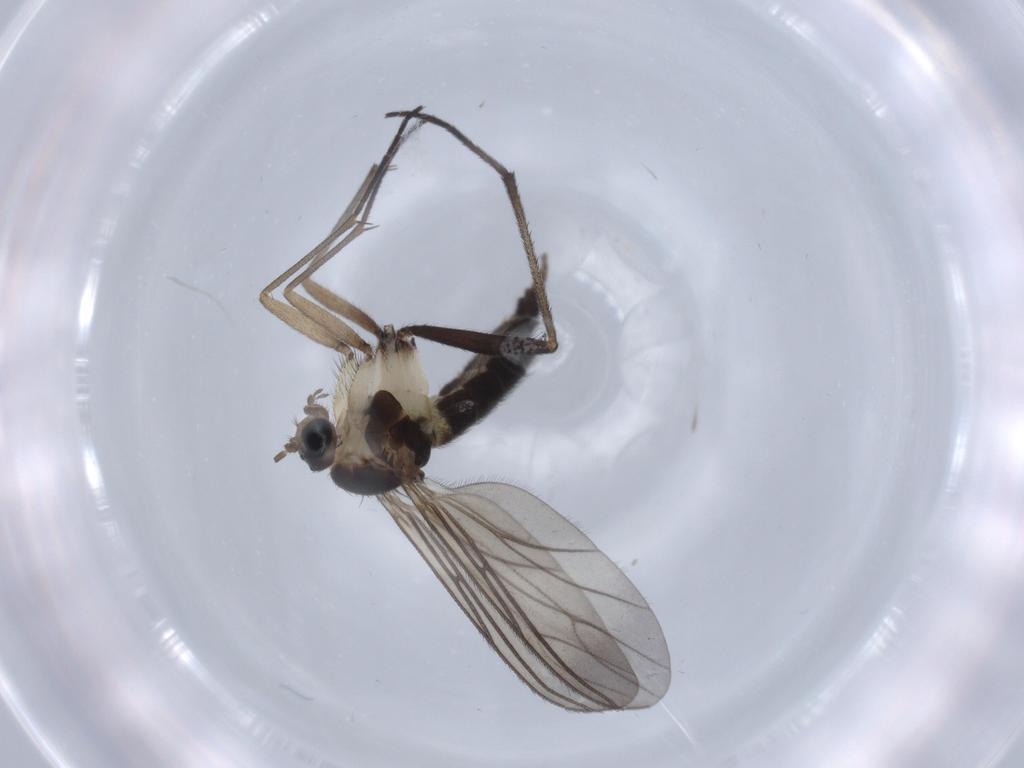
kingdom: Animalia
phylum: Arthropoda
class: Insecta
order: Diptera
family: Sciaridae
